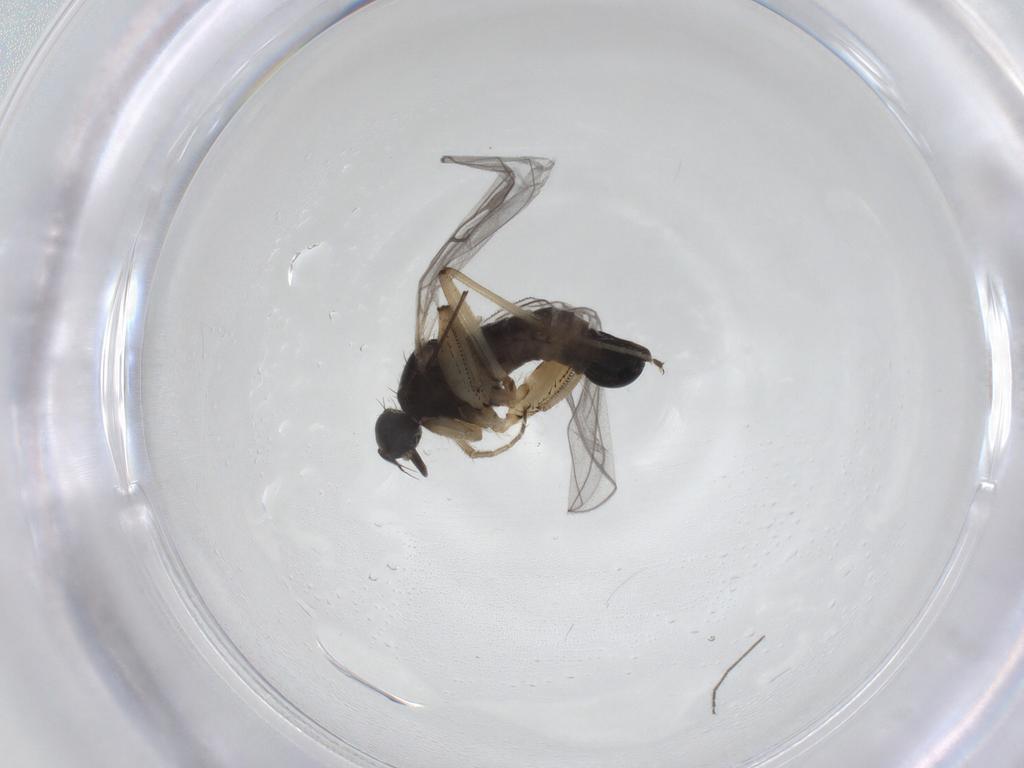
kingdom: Animalia
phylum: Arthropoda
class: Insecta
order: Diptera
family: Hybotidae
